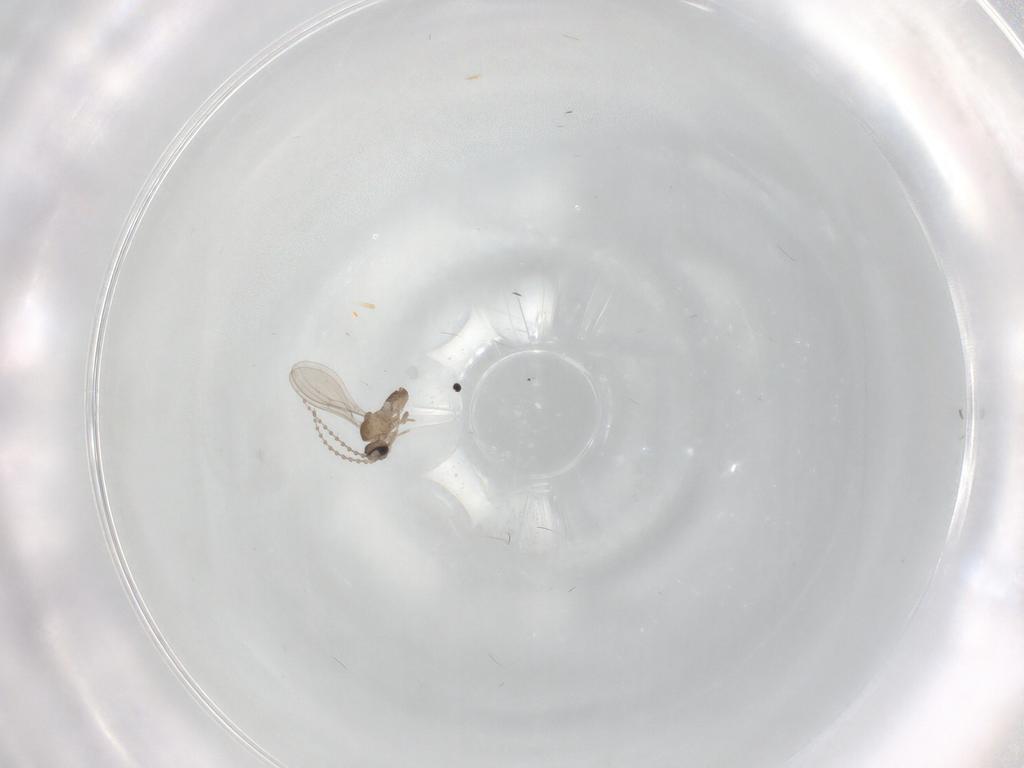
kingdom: Animalia
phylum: Arthropoda
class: Insecta
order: Diptera
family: Cecidomyiidae
